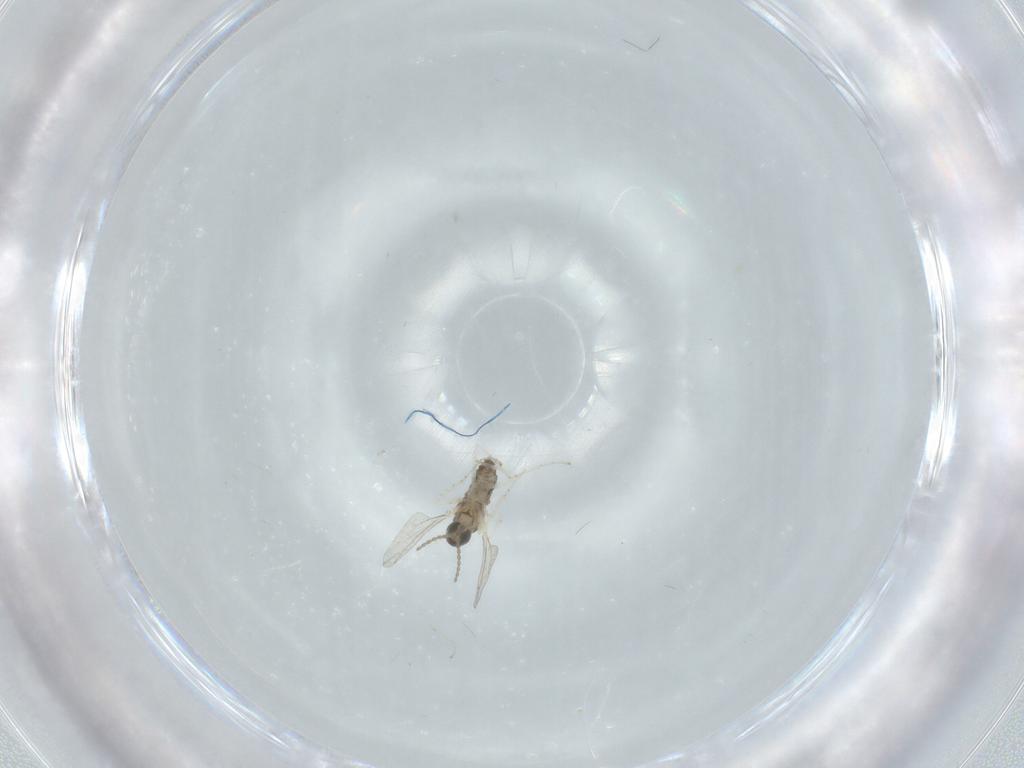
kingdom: Animalia
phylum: Arthropoda
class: Insecta
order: Diptera
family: Cecidomyiidae
